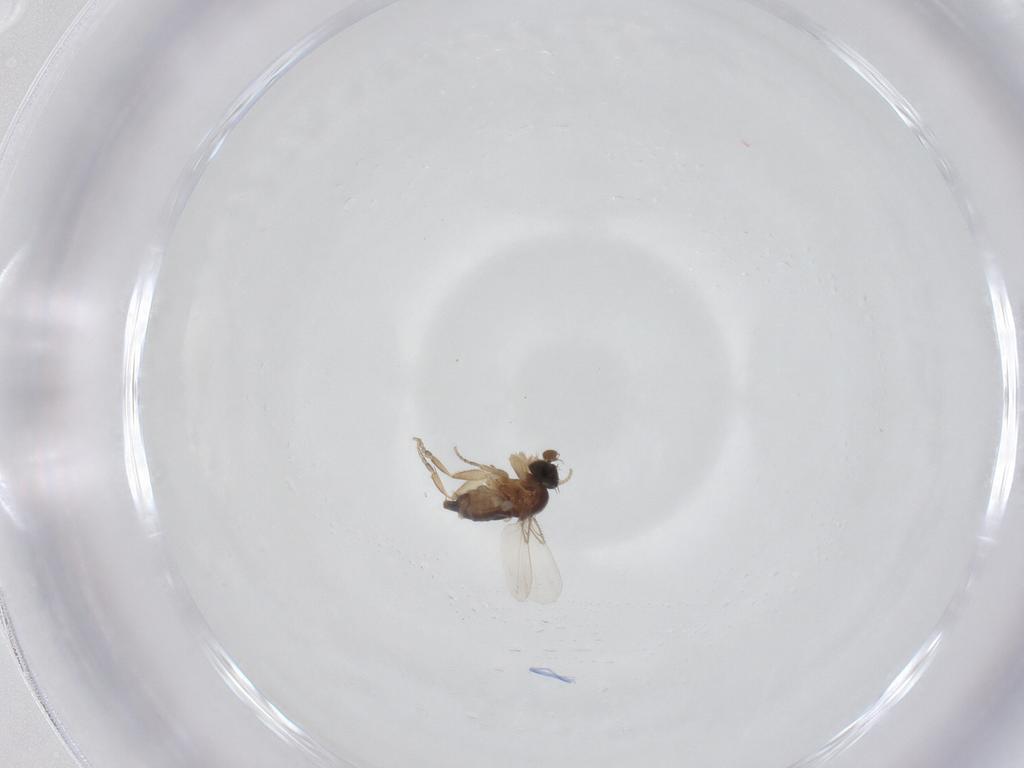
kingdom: Animalia
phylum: Arthropoda
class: Insecta
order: Diptera
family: Phoridae
